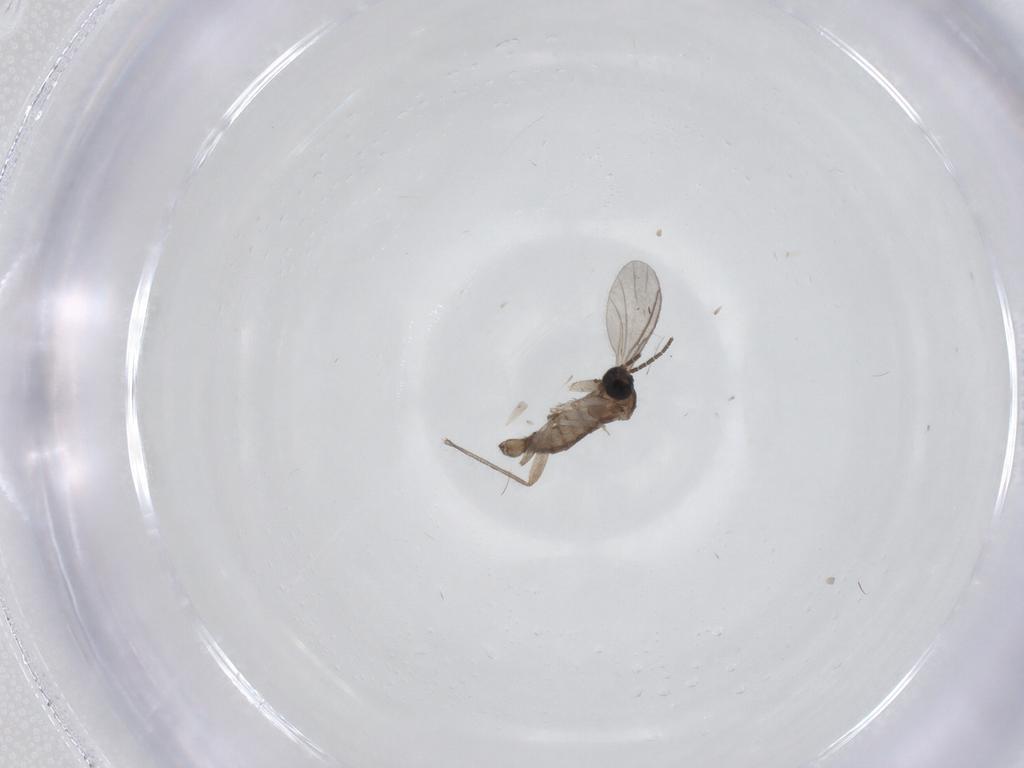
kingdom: Animalia
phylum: Arthropoda
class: Insecta
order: Diptera
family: Sciaridae
